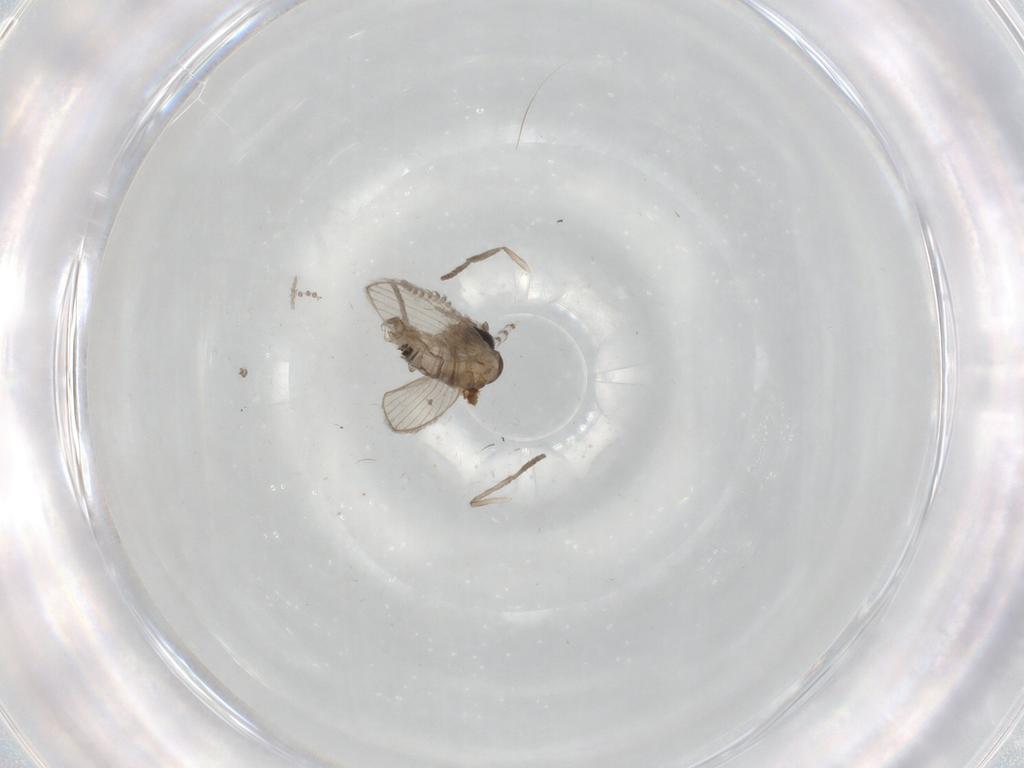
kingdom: Animalia
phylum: Arthropoda
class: Insecta
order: Diptera
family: Psychodidae
